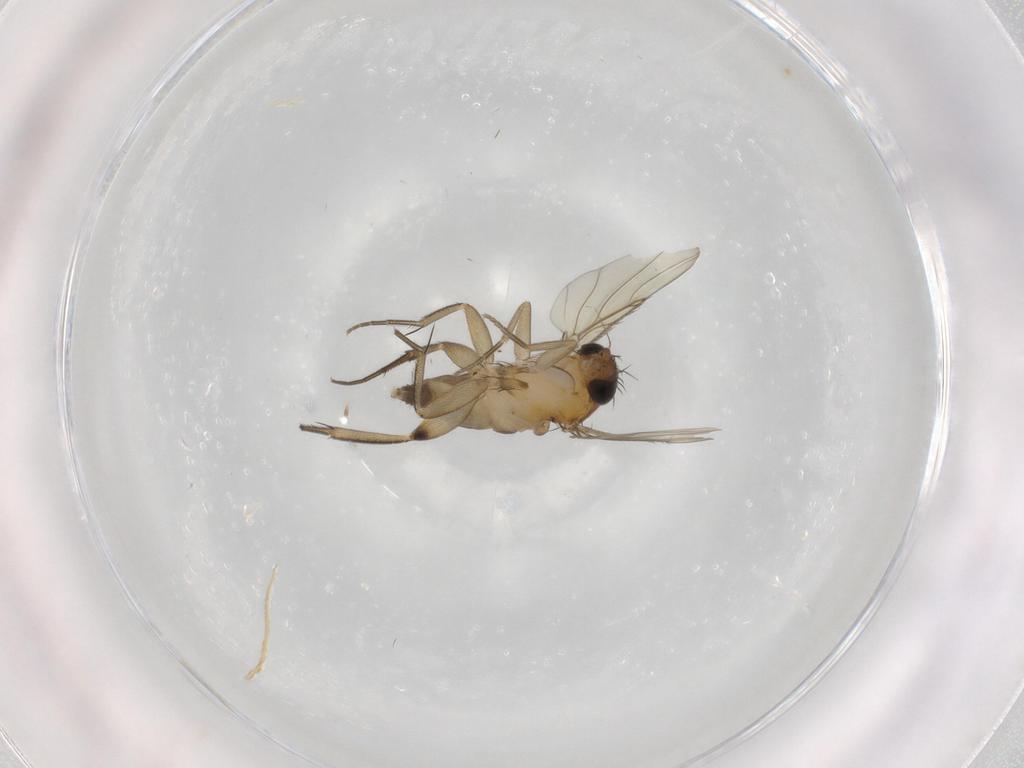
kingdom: Animalia
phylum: Arthropoda
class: Insecta
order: Diptera
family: Phoridae
